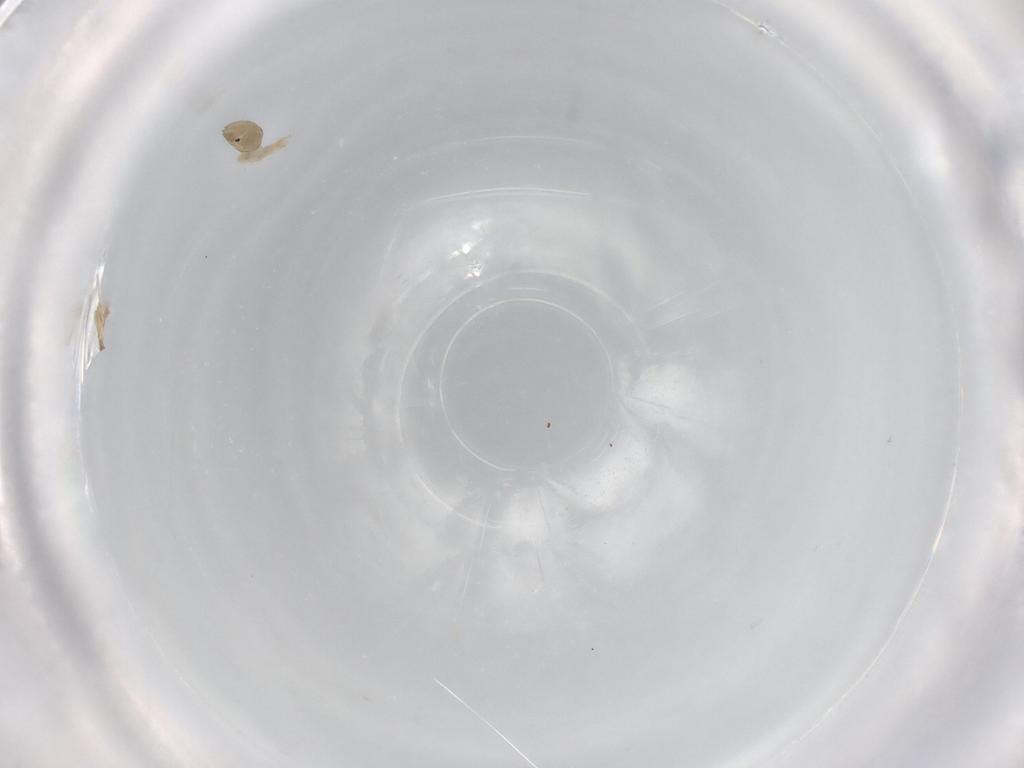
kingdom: Animalia
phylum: Arthropoda
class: Insecta
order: Diptera
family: Chironomidae
